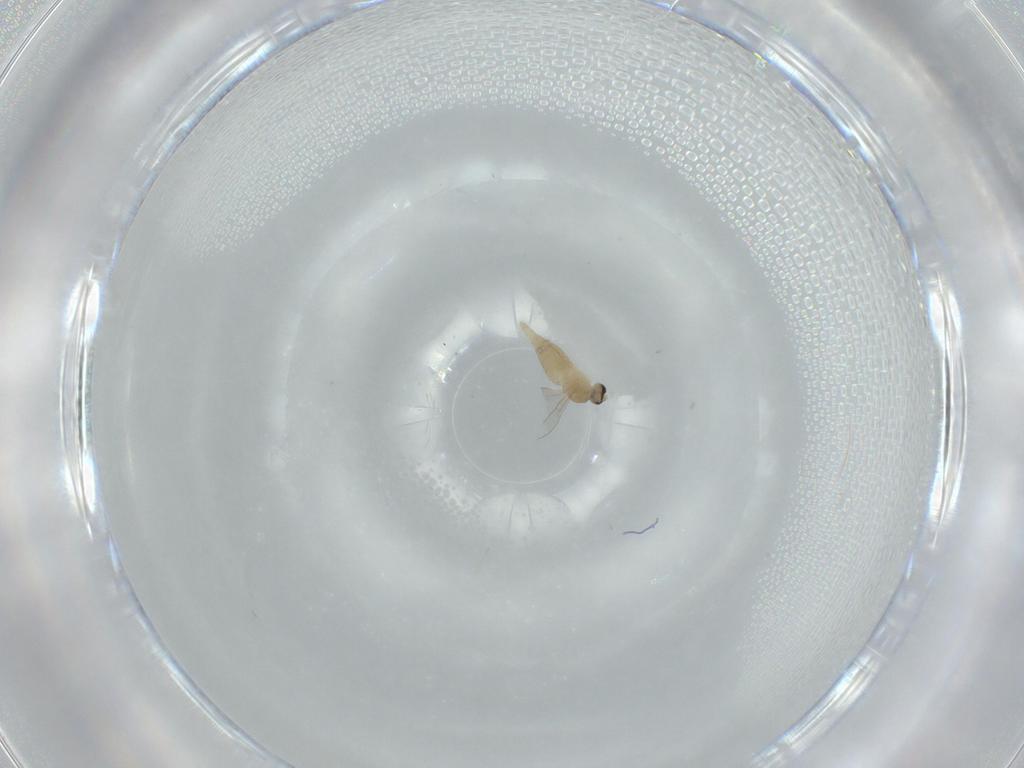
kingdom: Animalia
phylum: Arthropoda
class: Insecta
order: Diptera
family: Cecidomyiidae
